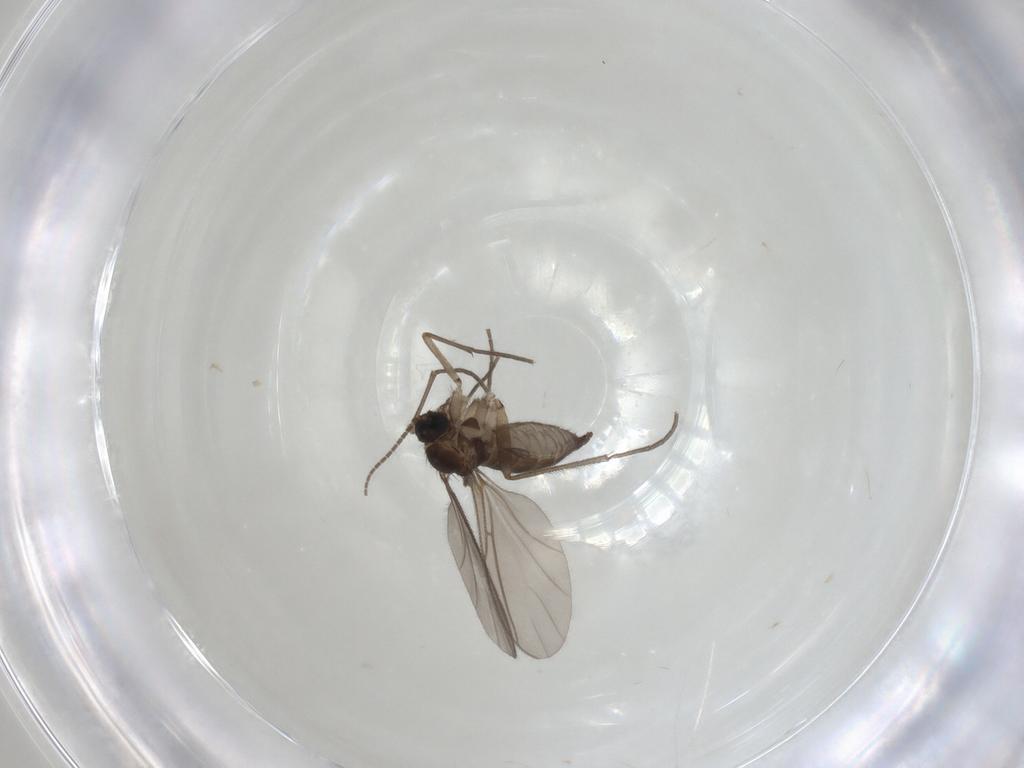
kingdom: Animalia
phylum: Arthropoda
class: Insecta
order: Diptera
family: Sciaridae
